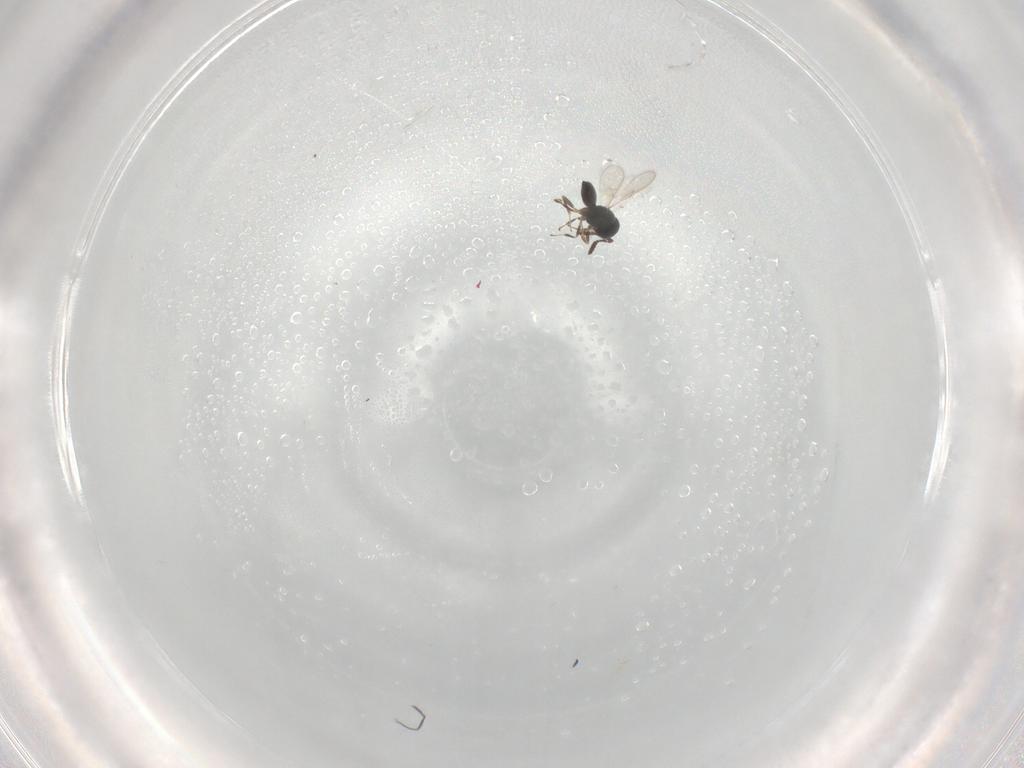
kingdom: Animalia
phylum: Arthropoda
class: Insecta
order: Hymenoptera
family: Scelionidae
